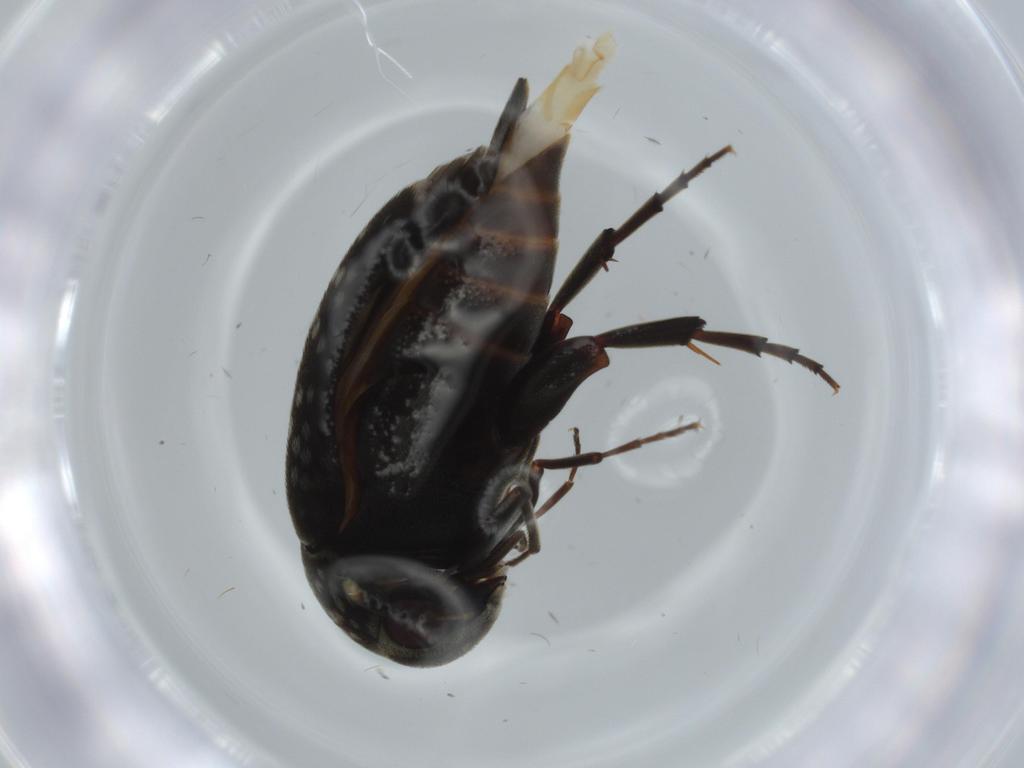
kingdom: Animalia
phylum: Arthropoda
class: Insecta
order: Coleoptera
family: Mordellidae
